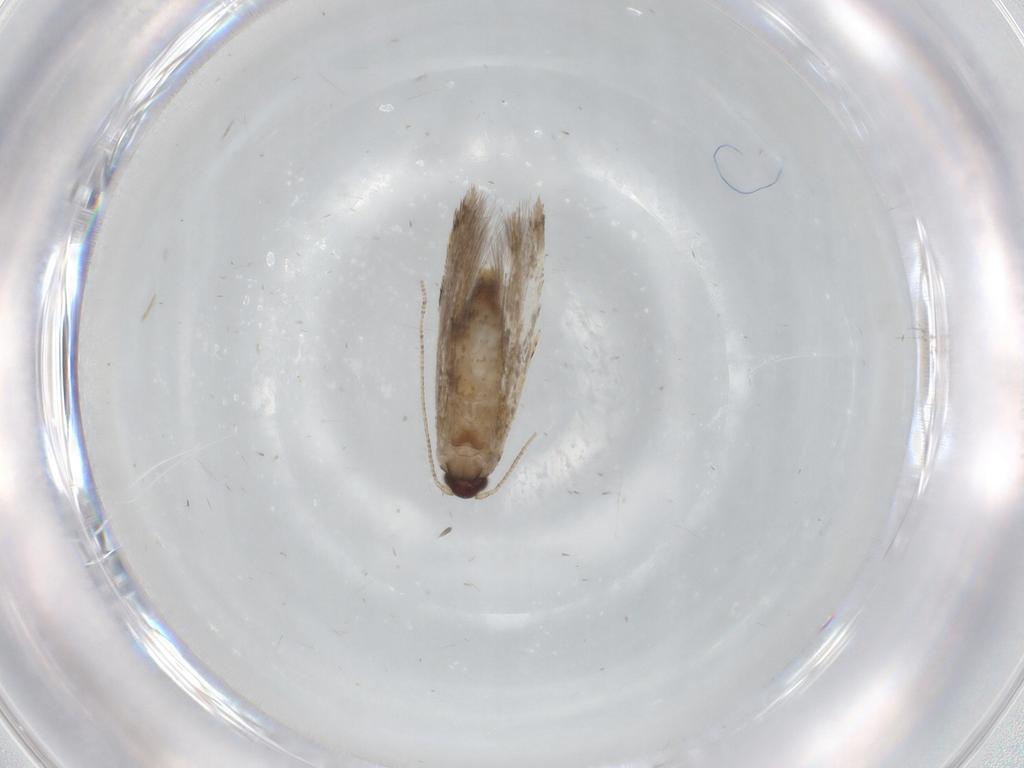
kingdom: Animalia
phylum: Arthropoda
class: Insecta
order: Lepidoptera
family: Tineidae
